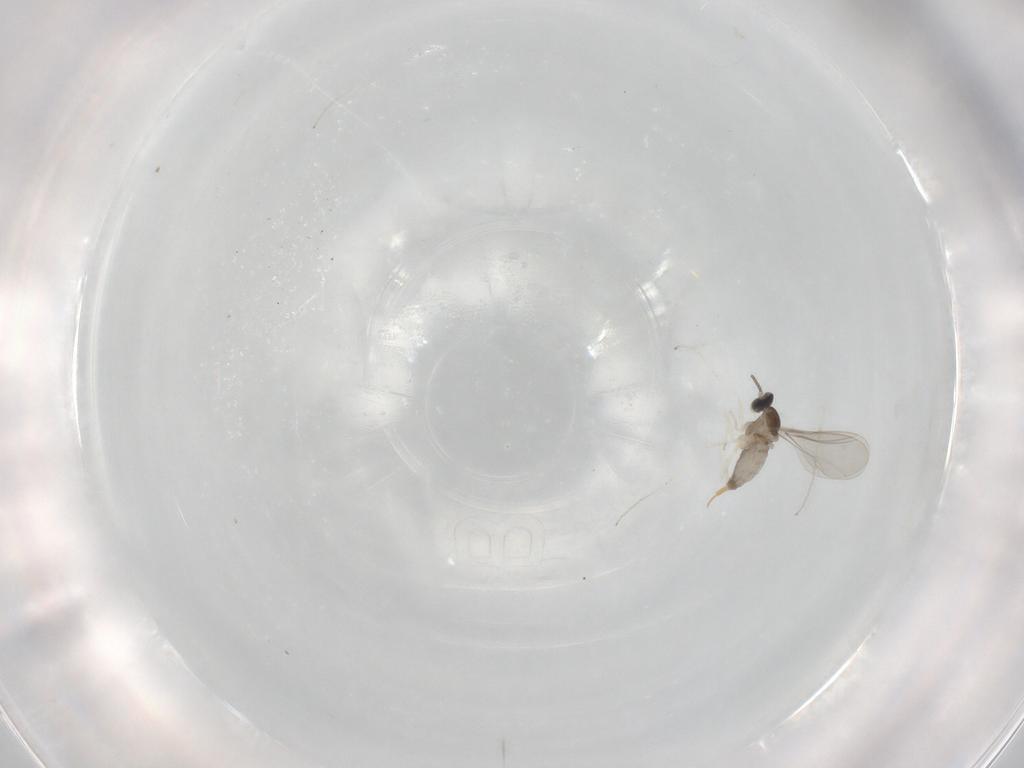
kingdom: Animalia
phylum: Arthropoda
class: Insecta
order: Diptera
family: Cecidomyiidae
